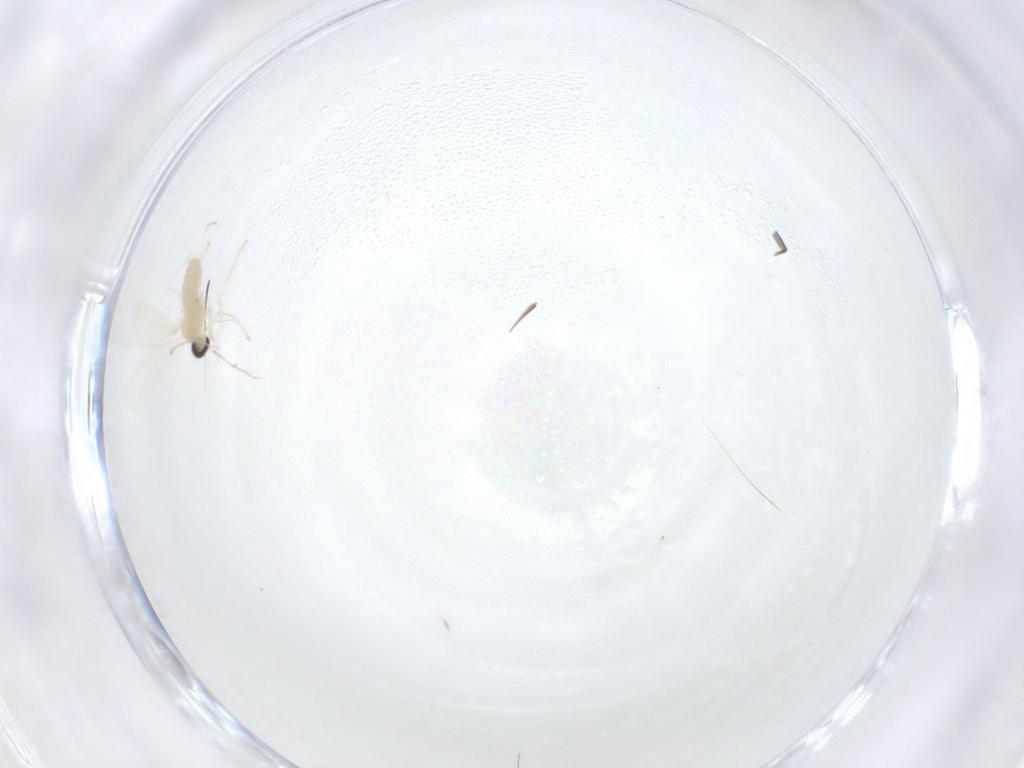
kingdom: Animalia
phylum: Arthropoda
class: Insecta
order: Diptera
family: Cecidomyiidae
